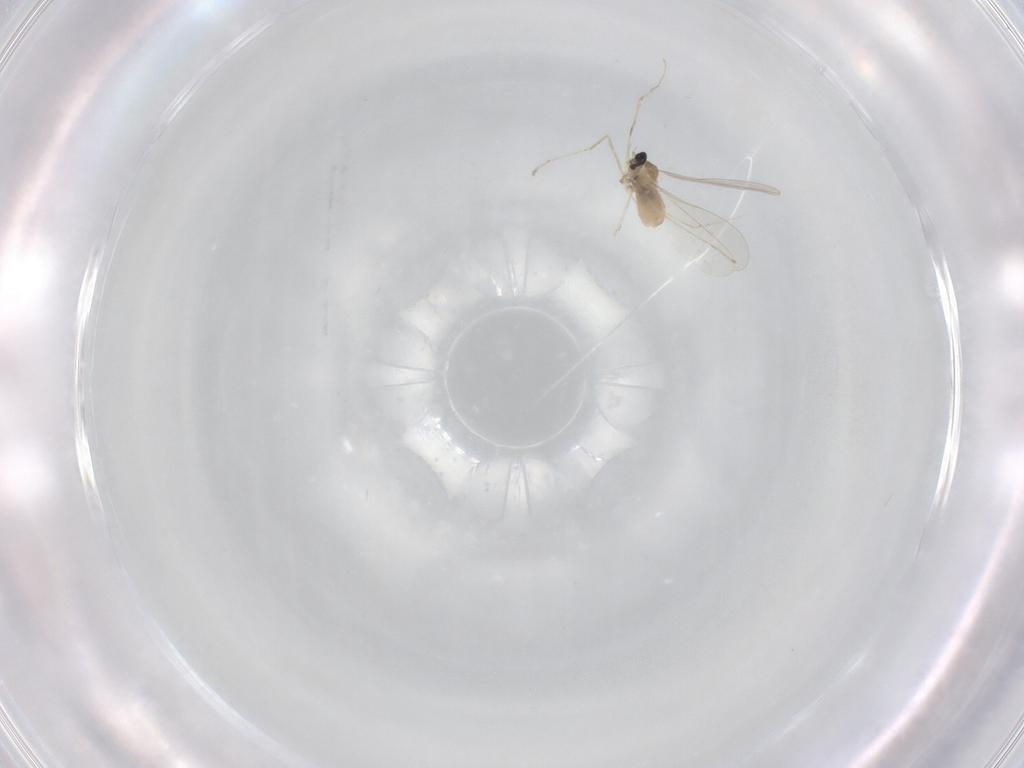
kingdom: Animalia
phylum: Arthropoda
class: Insecta
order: Diptera
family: Cecidomyiidae
